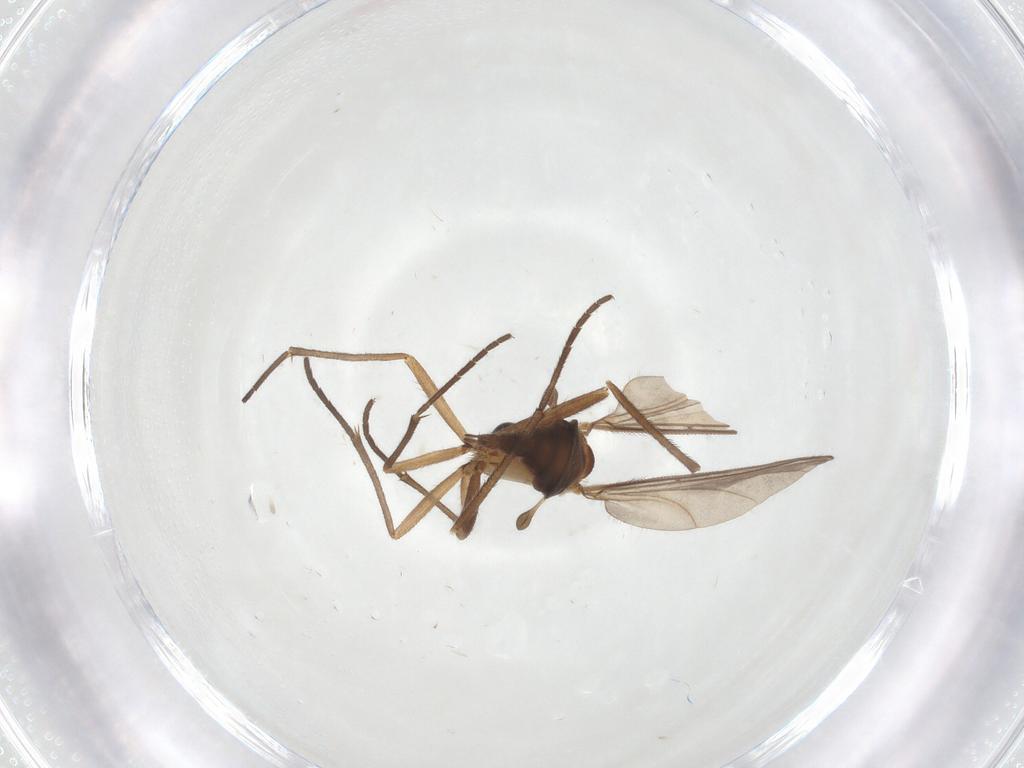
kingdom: Animalia
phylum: Arthropoda
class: Insecta
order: Diptera
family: Sciaridae
